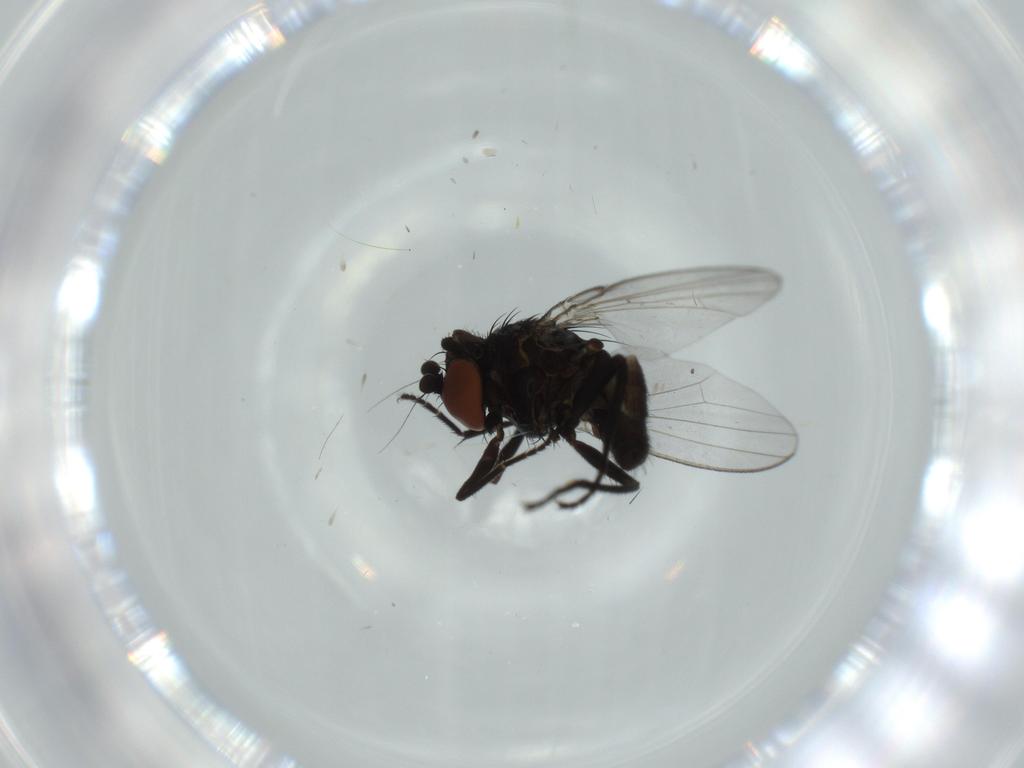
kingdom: Animalia
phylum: Arthropoda
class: Insecta
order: Diptera
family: Milichiidae
